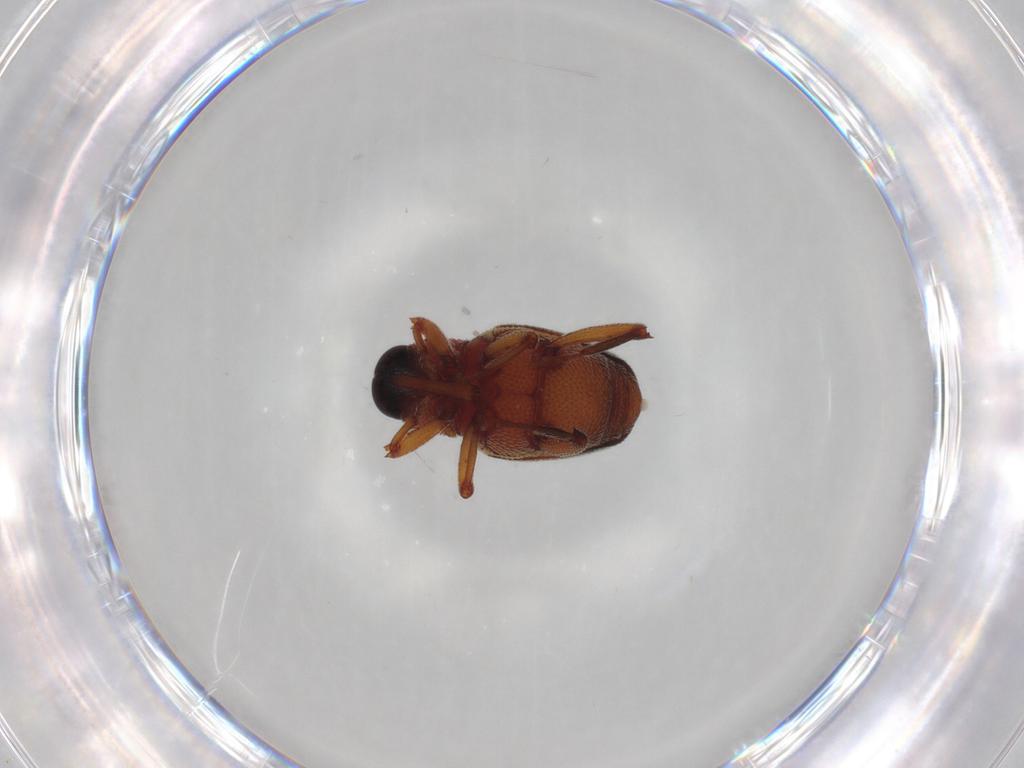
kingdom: Animalia
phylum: Arthropoda
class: Insecta
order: Coleoptera
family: Curculionidae
